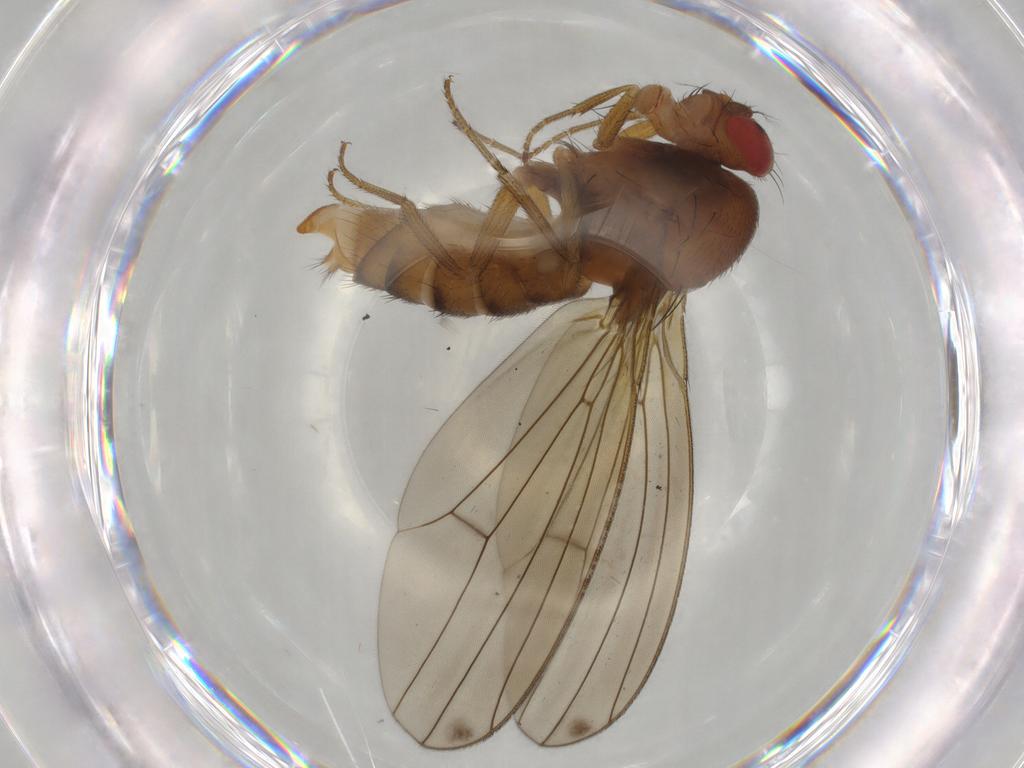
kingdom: Animalia
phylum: Arthropoda
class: Insecta
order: Diptera
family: Drosophilidae
